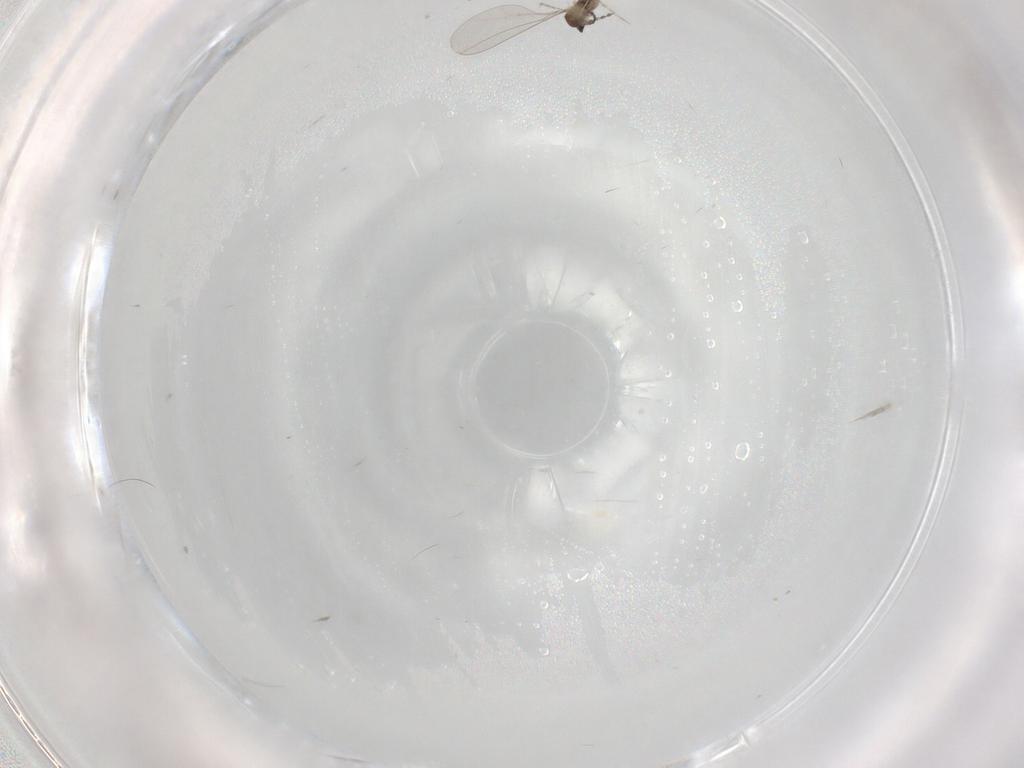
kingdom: Animalia
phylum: Arthropoda
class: Insecta
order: Diptera
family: Cecidomyiidae
